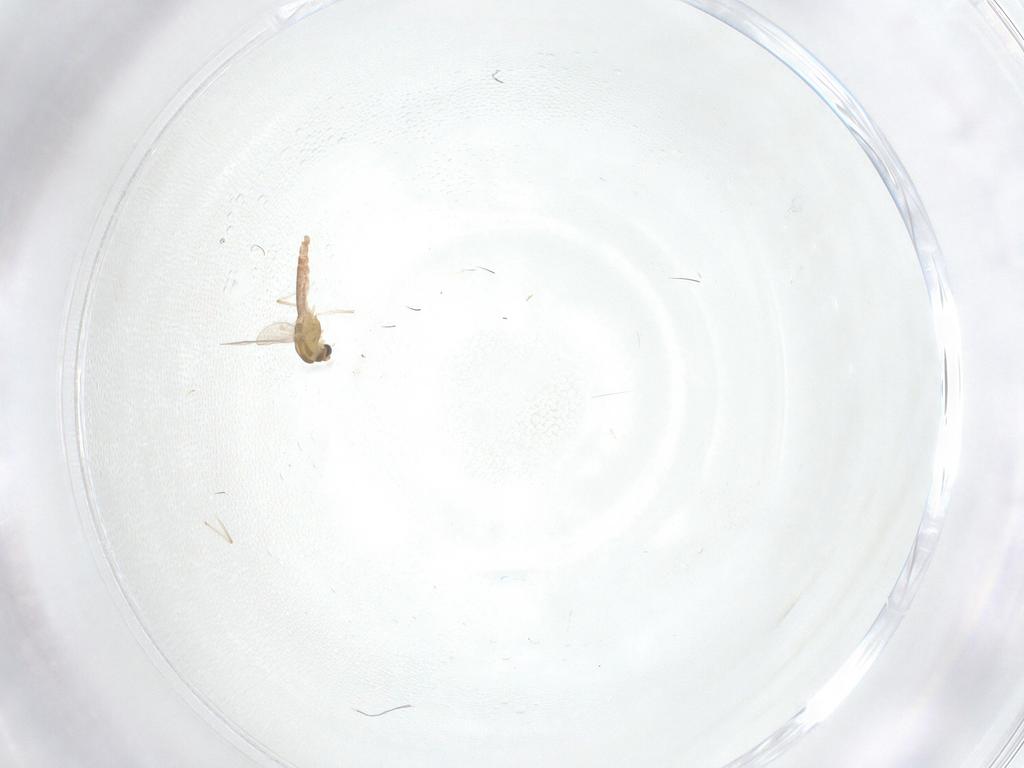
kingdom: Animalia
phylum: Arthropoda
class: Insecta
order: Diptera
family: Chironomidae
